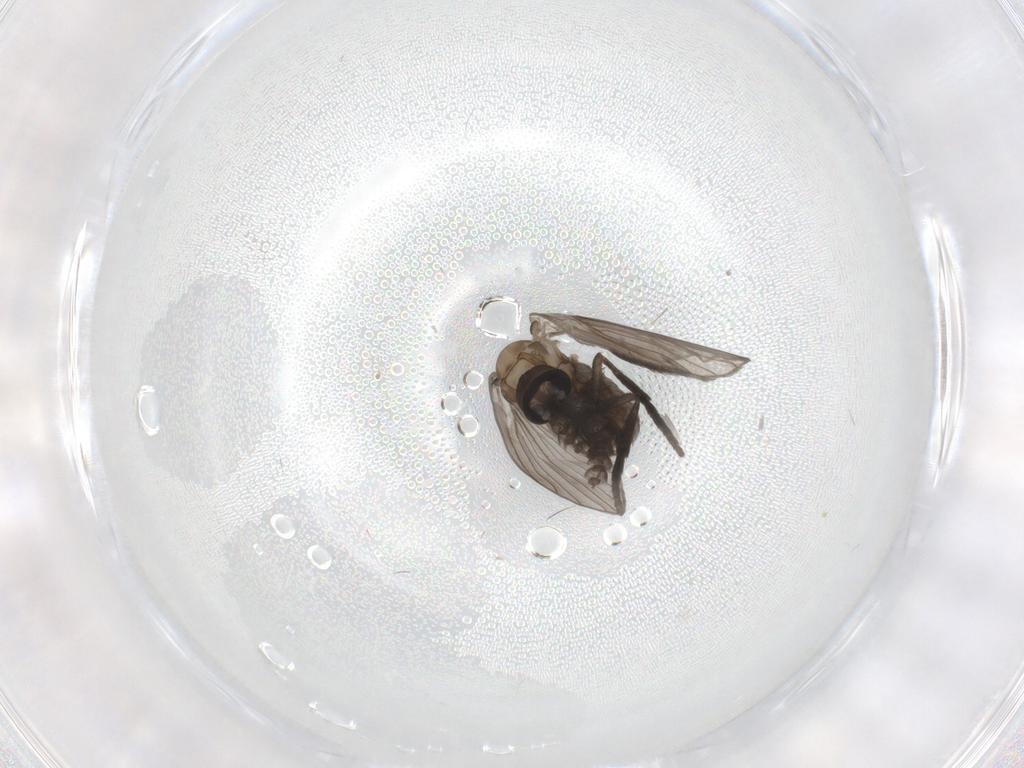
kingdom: Animalia
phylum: Arthropoda
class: Insecta
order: Diptera
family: Psychodidae
